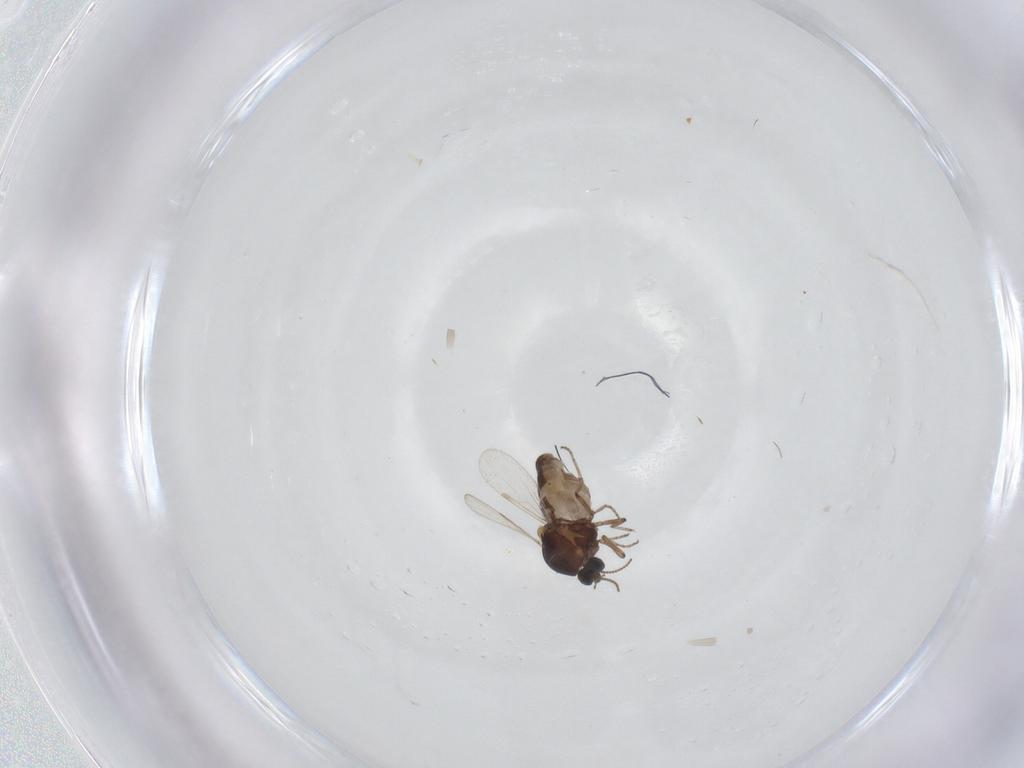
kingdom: Animalia
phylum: Arthropoda
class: Insecta
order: Diptera
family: Ceratopogonidae
